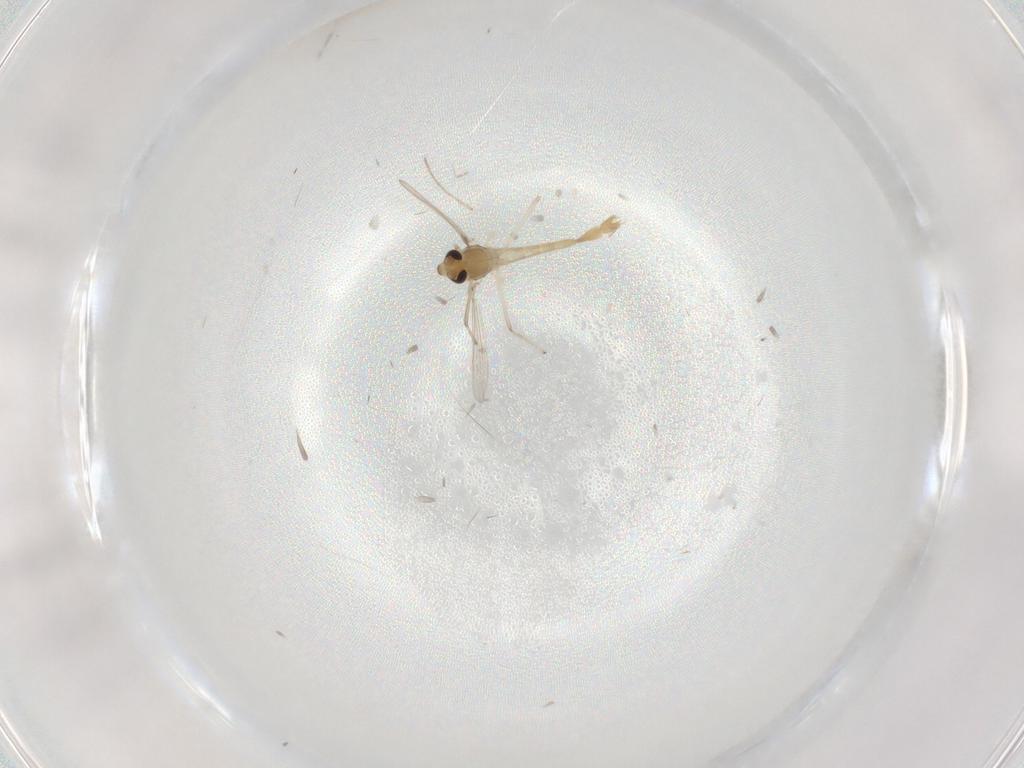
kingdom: Animalia
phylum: Arthropoda
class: Insecta
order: Diptera
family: Chironomidae
